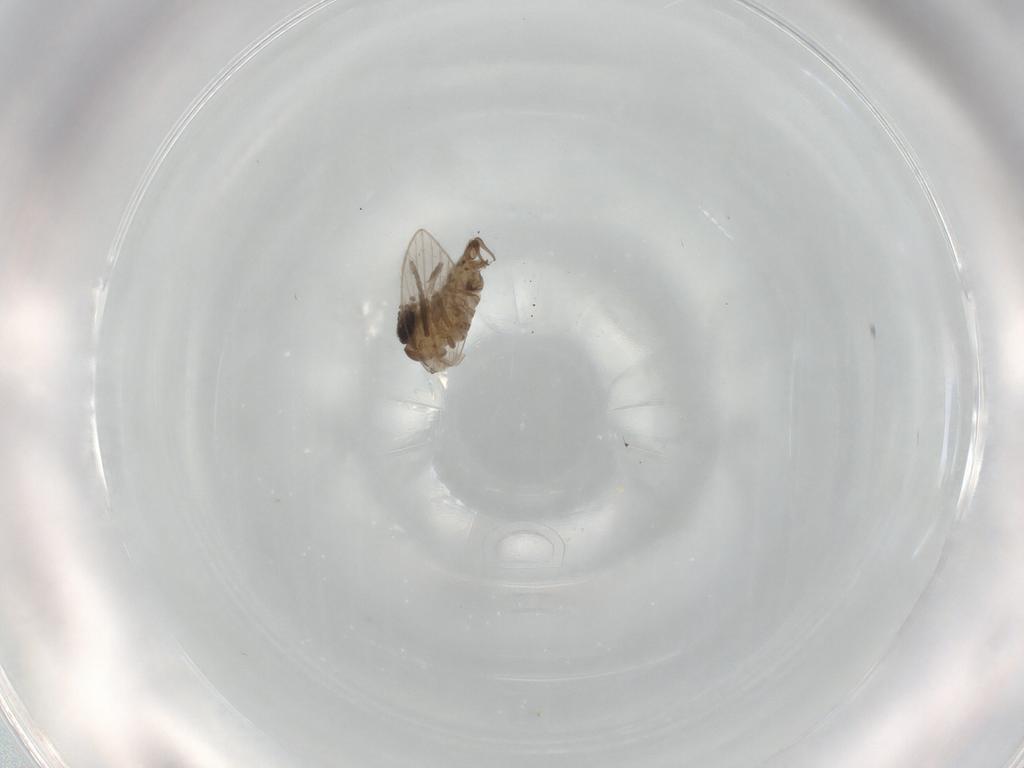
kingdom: Animalia
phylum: Arthropoda
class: Insecta
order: Diptera
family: Psychodidae
